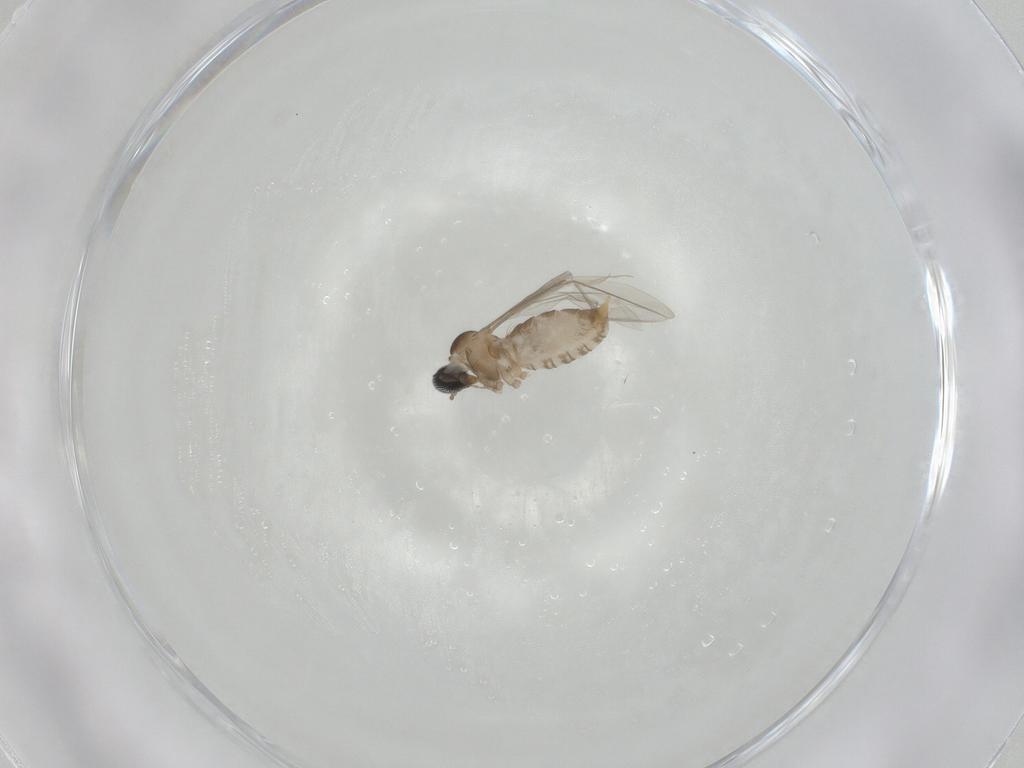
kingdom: Animalia
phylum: Arthropoda
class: Insecta
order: Diptera
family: Cecidomyiidae
